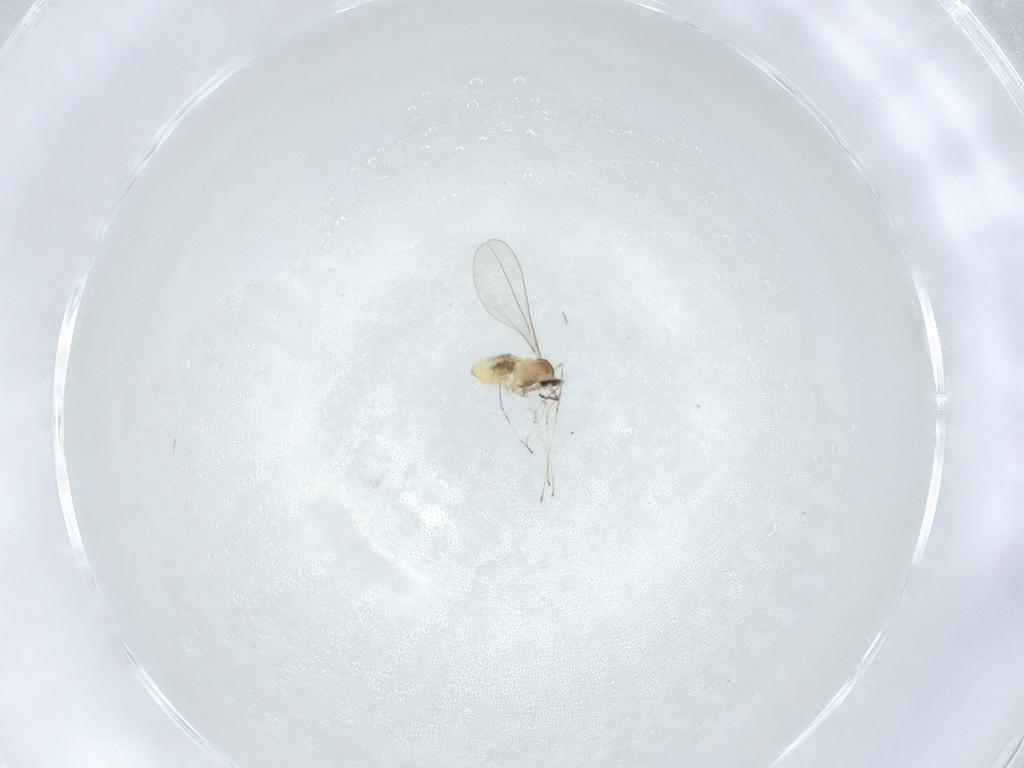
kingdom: Animalia
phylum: Arthropoda
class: Insecta
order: Diptera
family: Cecidomyiidae
